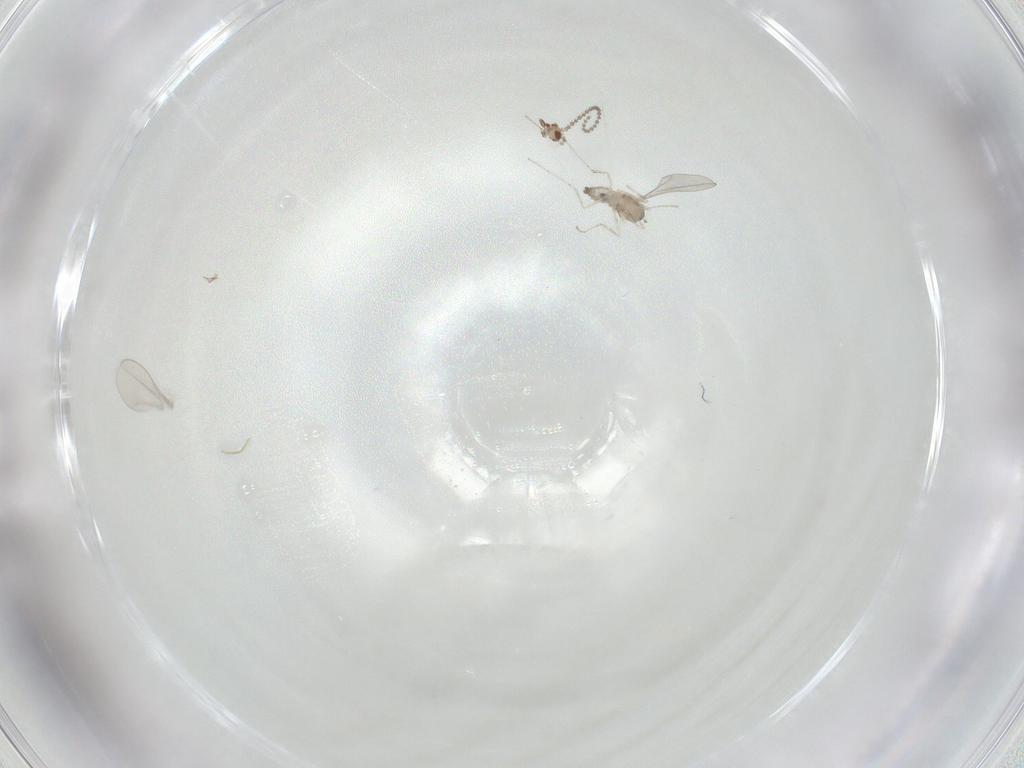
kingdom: Animalia
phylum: Arthropoda
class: Insecta
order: Diptera
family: Cecidomyiidae
